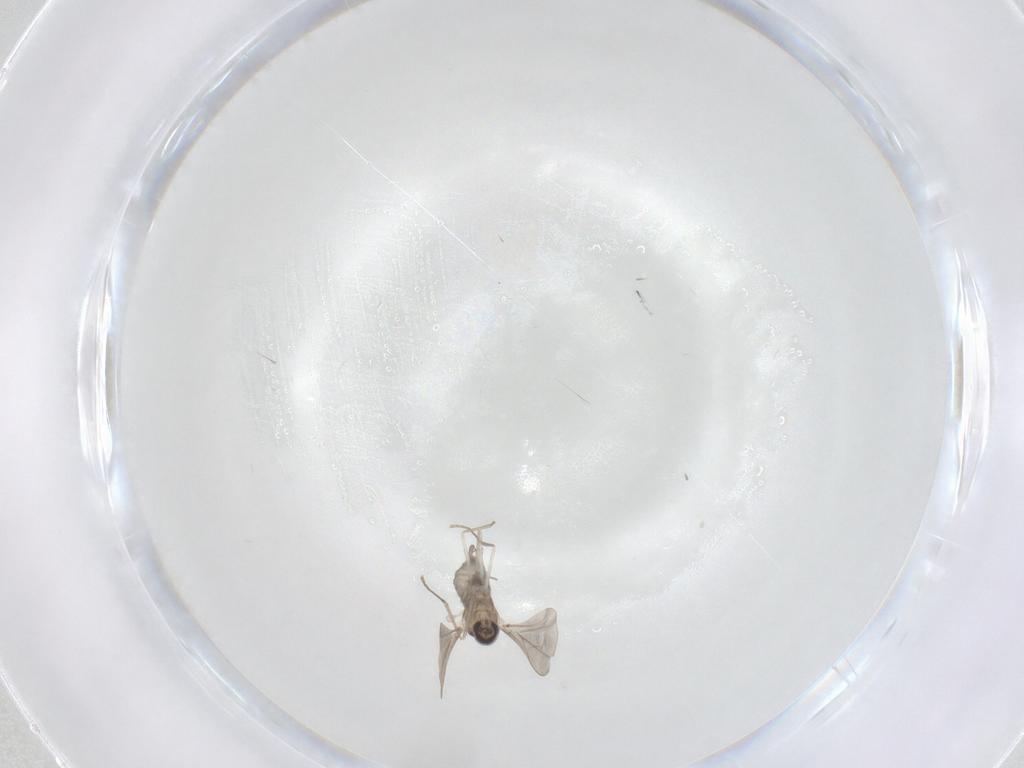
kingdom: Animalia
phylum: Arthropoda
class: Insecta
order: Diptera
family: Cecidomyiidae
